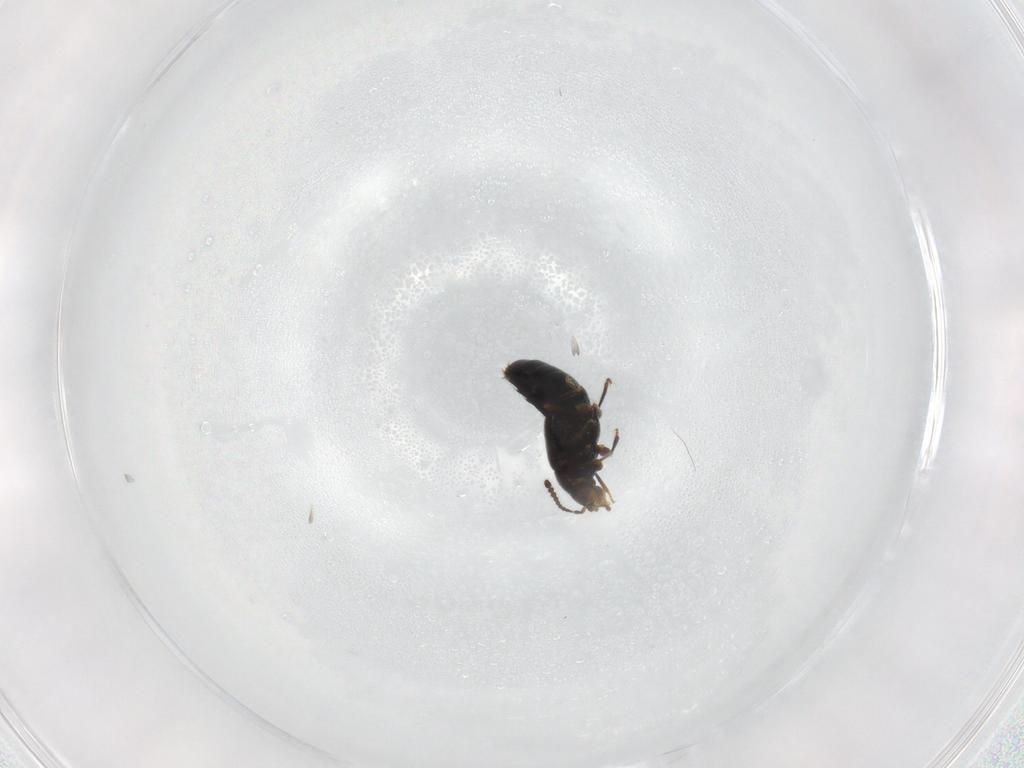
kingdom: Animalia
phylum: Arthropoda
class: Insecta
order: Coleoptera
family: Staphylinidae
